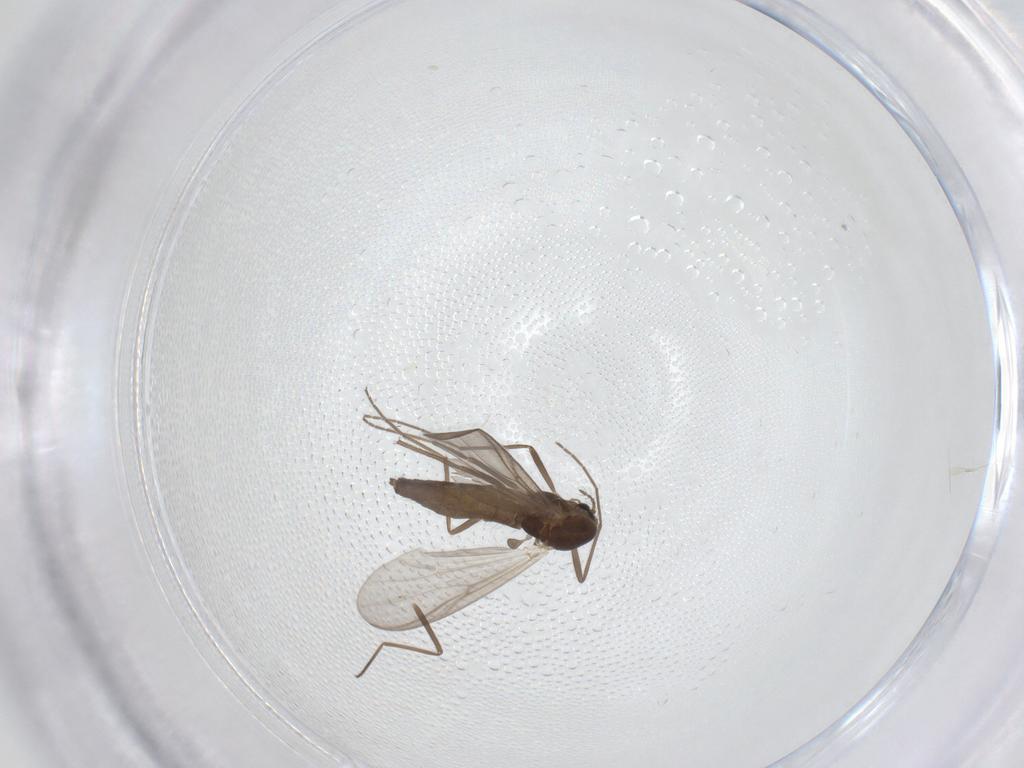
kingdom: Animalia
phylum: Arthropoda
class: Insecta
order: Diptera
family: Chironomidae
